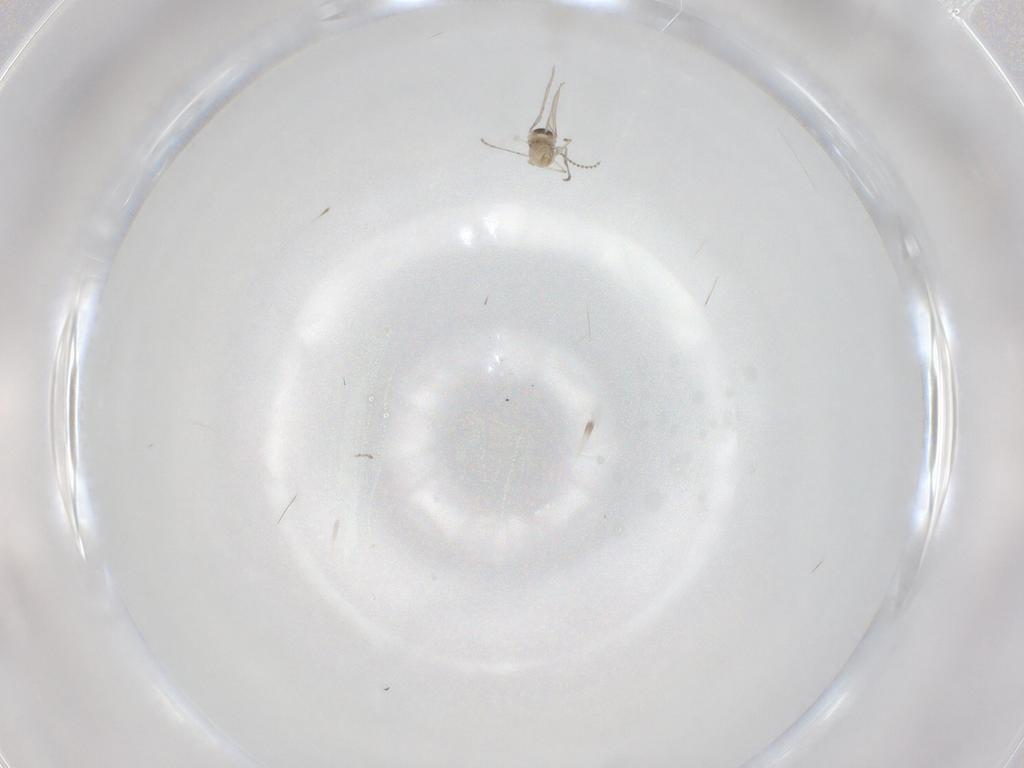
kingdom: Animalia
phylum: Arthropoda
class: Insecta
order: Diptera
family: Cecidomyiidae
